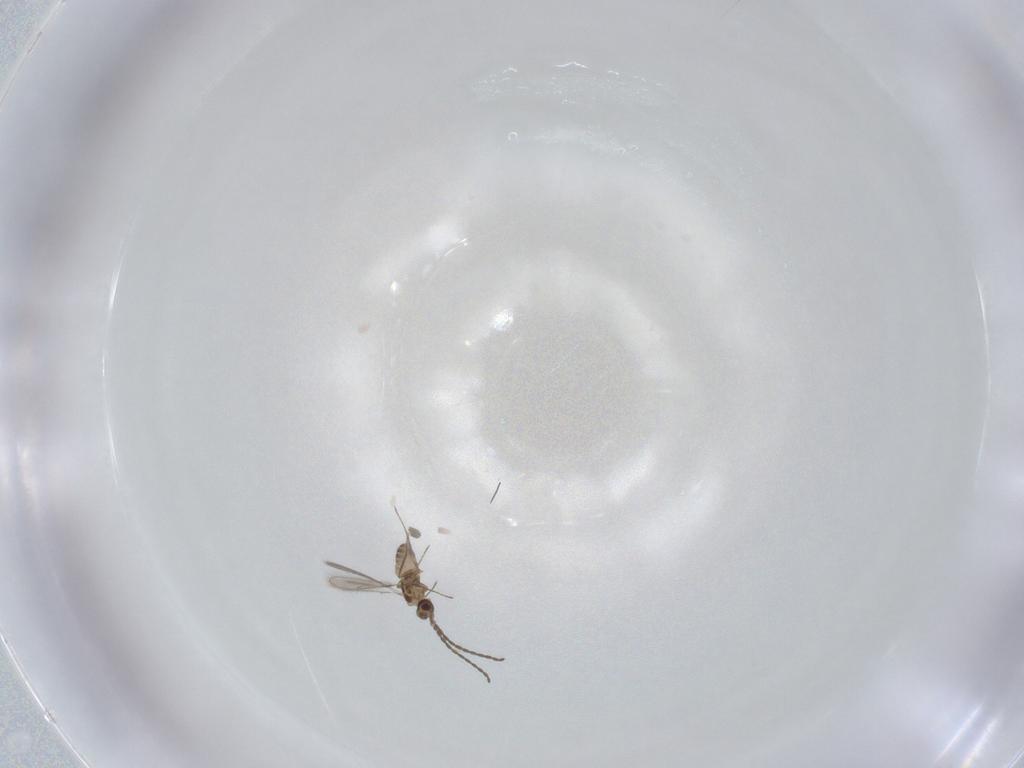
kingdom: Animalia
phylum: Arthropoda
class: Insecta
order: Hymenoptera
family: Mymaridae
